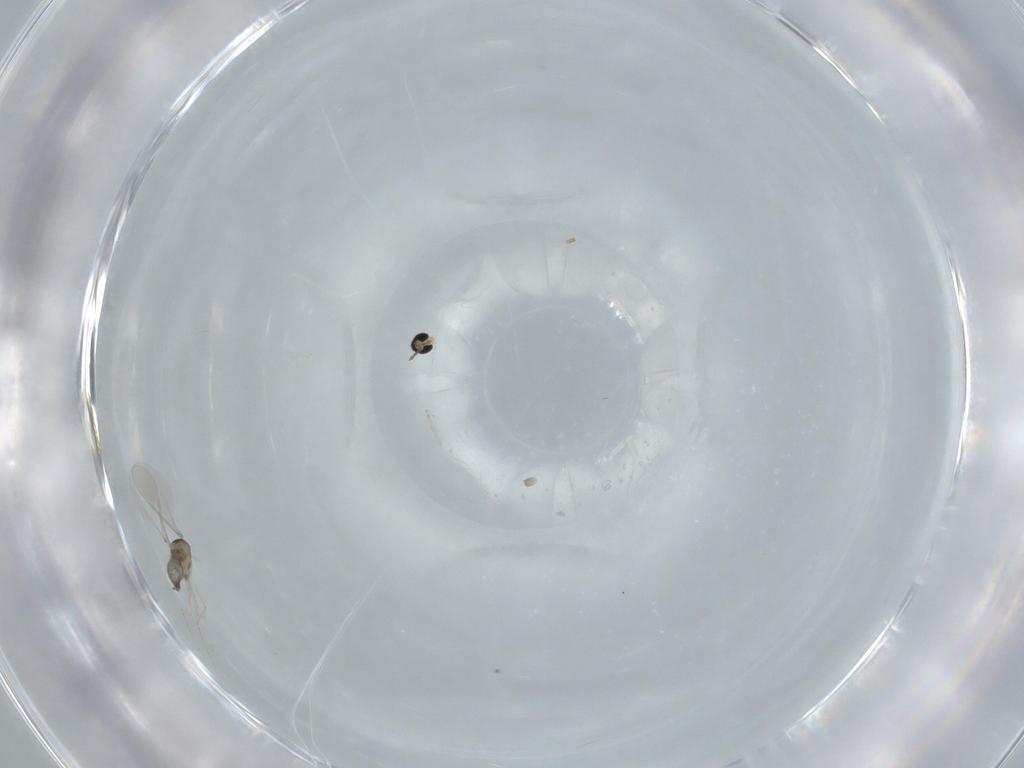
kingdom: Animalia
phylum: Arthropoda
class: Insecta
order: Diptera
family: Cecidomyiidae
